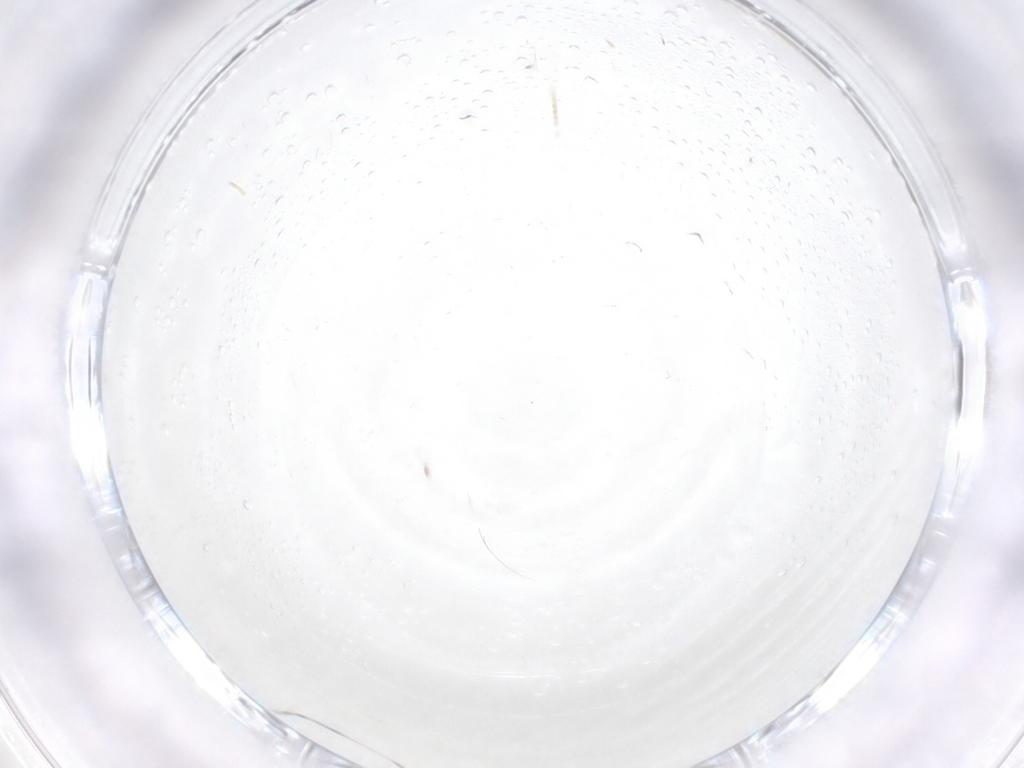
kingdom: Animalia
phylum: Arthropoda
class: Insecta
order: Diptera
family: Sciaridae
